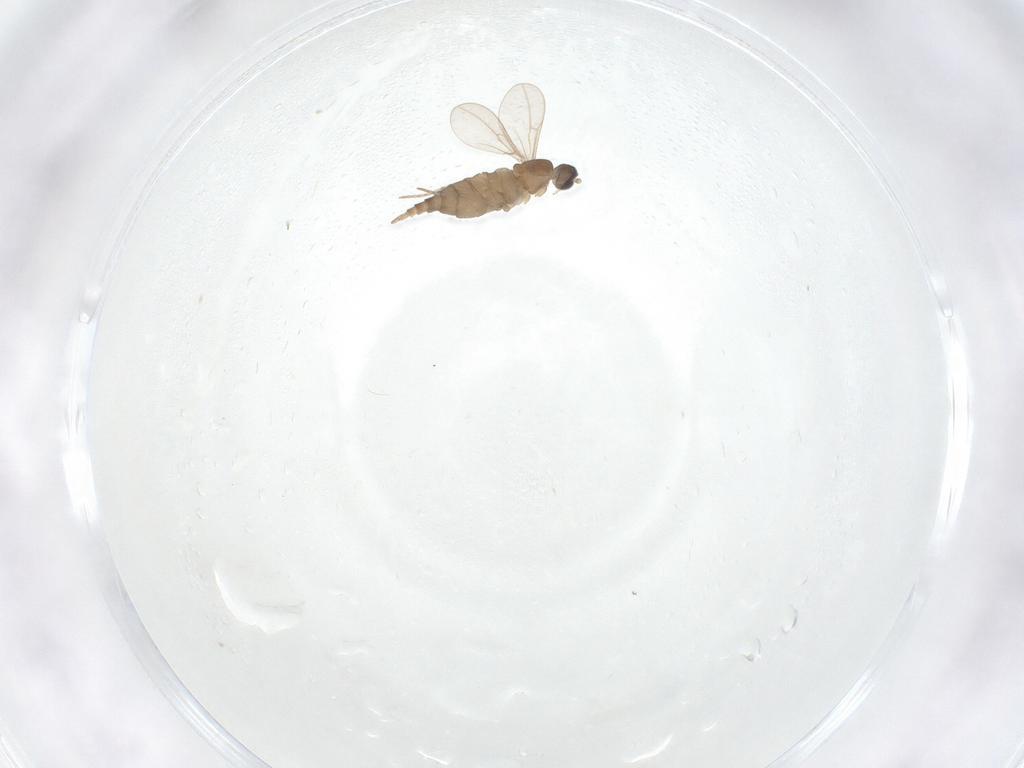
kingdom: Animalia
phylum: Arthropoda
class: Insecta
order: Diptera
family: Cecidomyiidae
